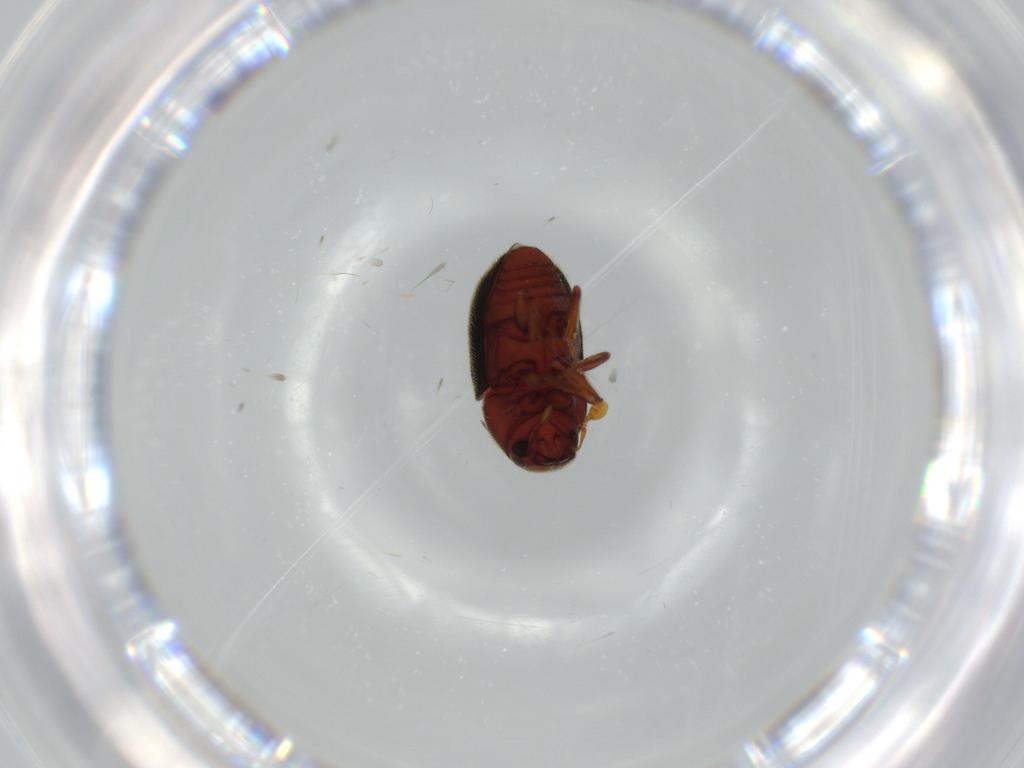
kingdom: Animalia
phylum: Arthropoda
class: Insecta
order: Coleoptera
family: Curculionidae
